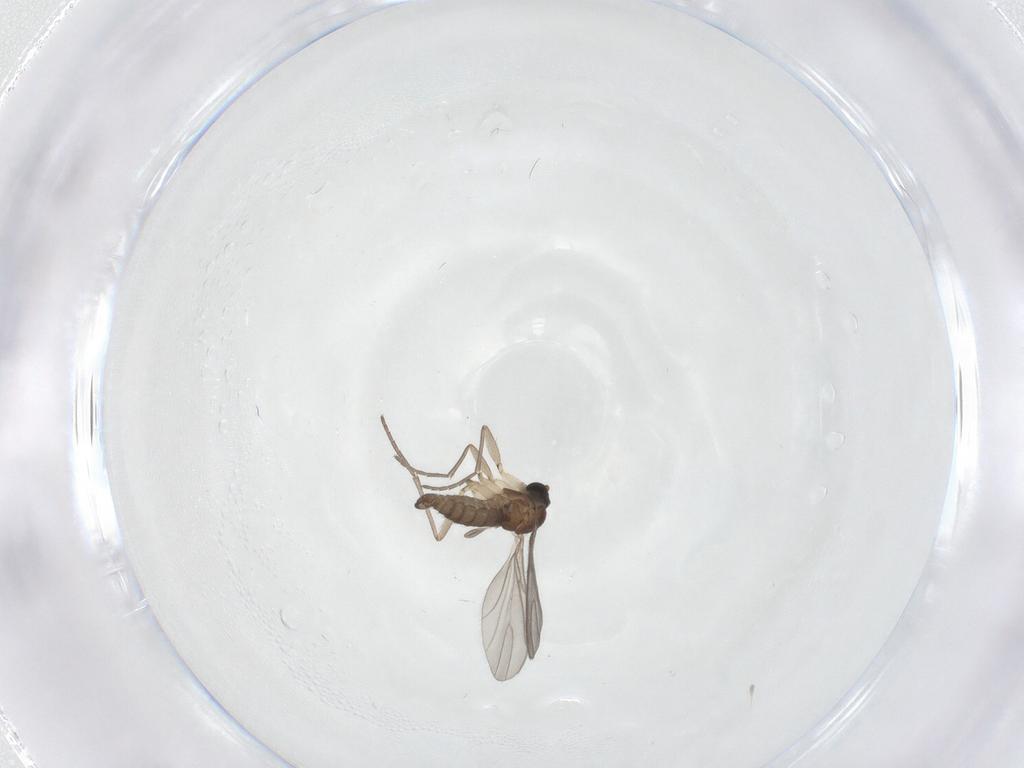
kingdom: Animalia
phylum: Arthropoda
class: Insecta
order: Diptera
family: Sciaridae
